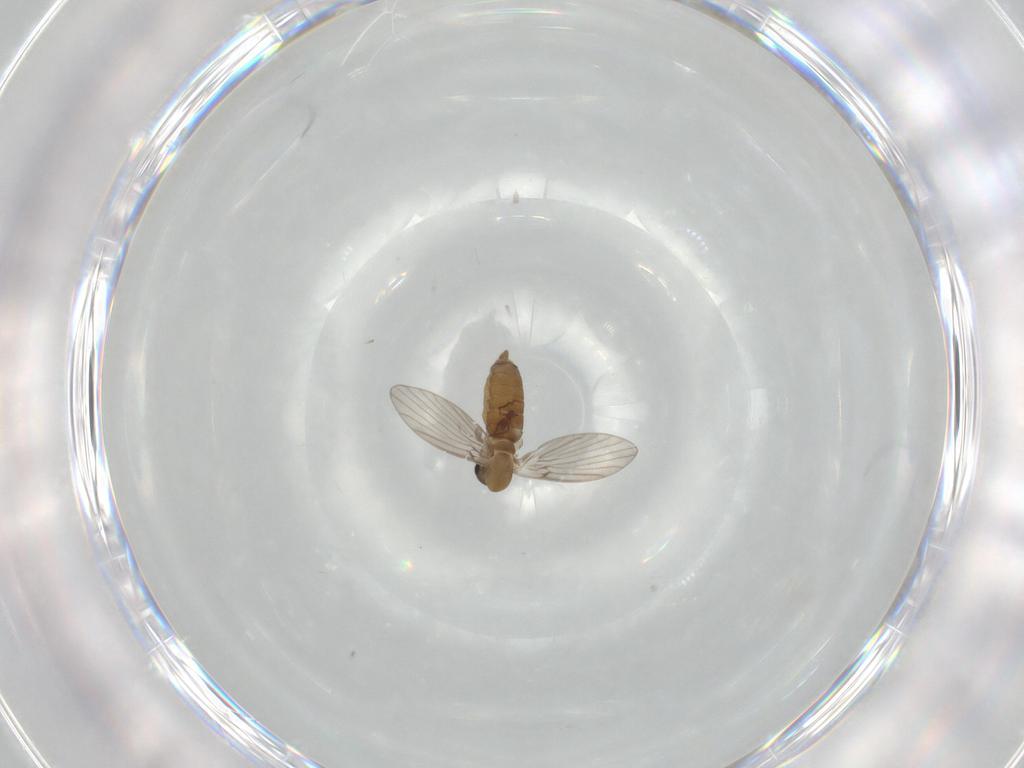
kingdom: Animalia
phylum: Arthropoda
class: Insecta
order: Diptera
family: Psychodidae
